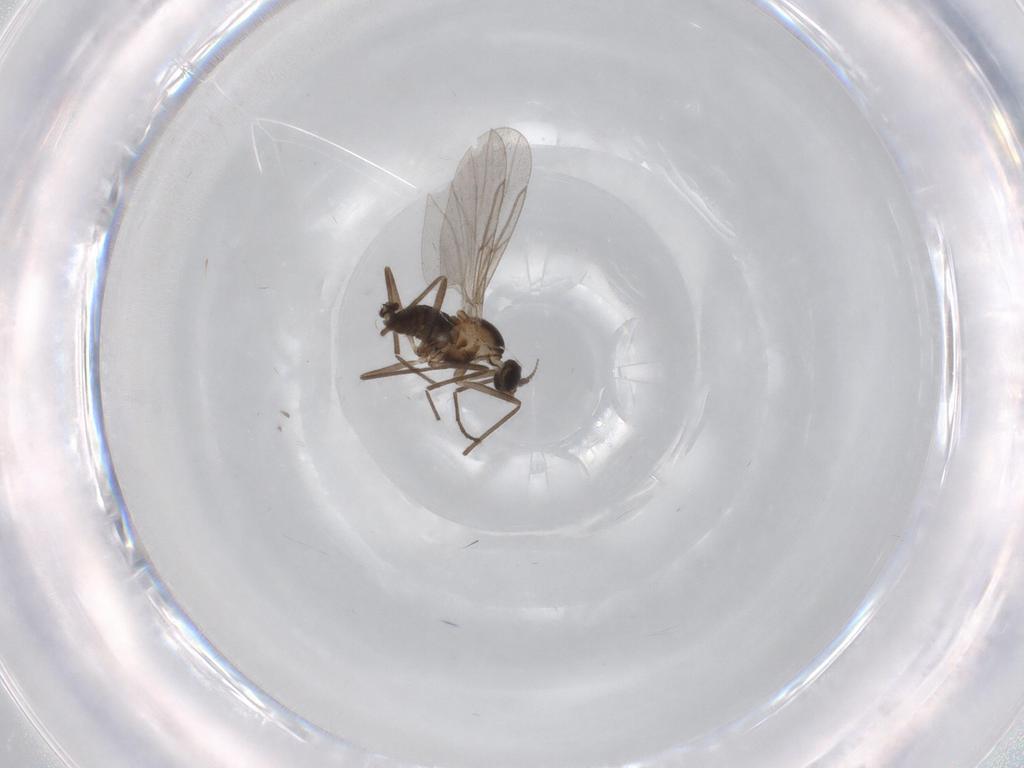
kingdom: Animalia
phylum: Arthropoda
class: Insecta
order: Diptera
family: Cecidomyiidae
